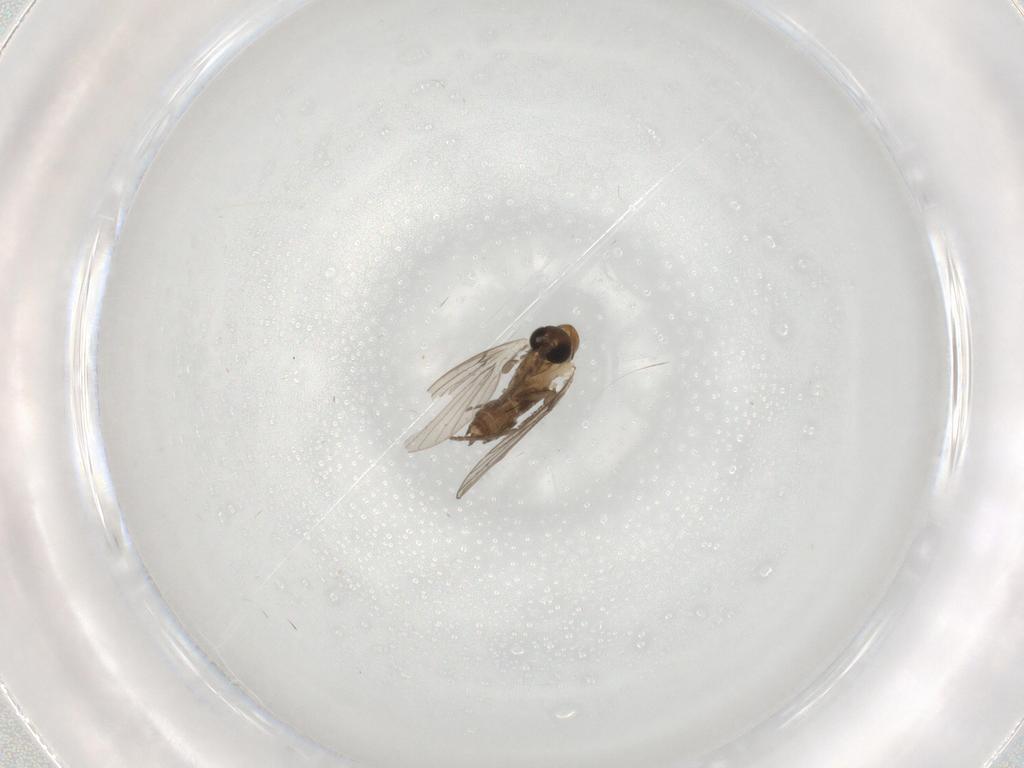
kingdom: Animalia
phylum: Arthropoda
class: Insecta
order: Diptera
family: Psychodidae
